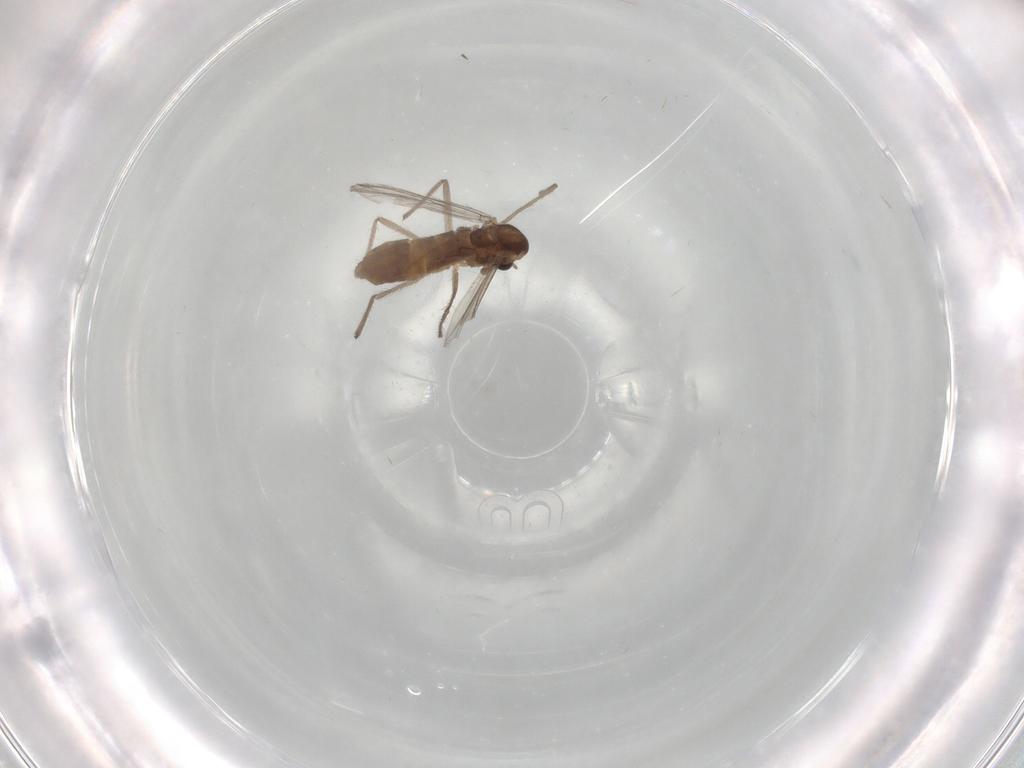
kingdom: Animalia
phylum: Arthropoda
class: Insecta
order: Diptera
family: Chironomidae
